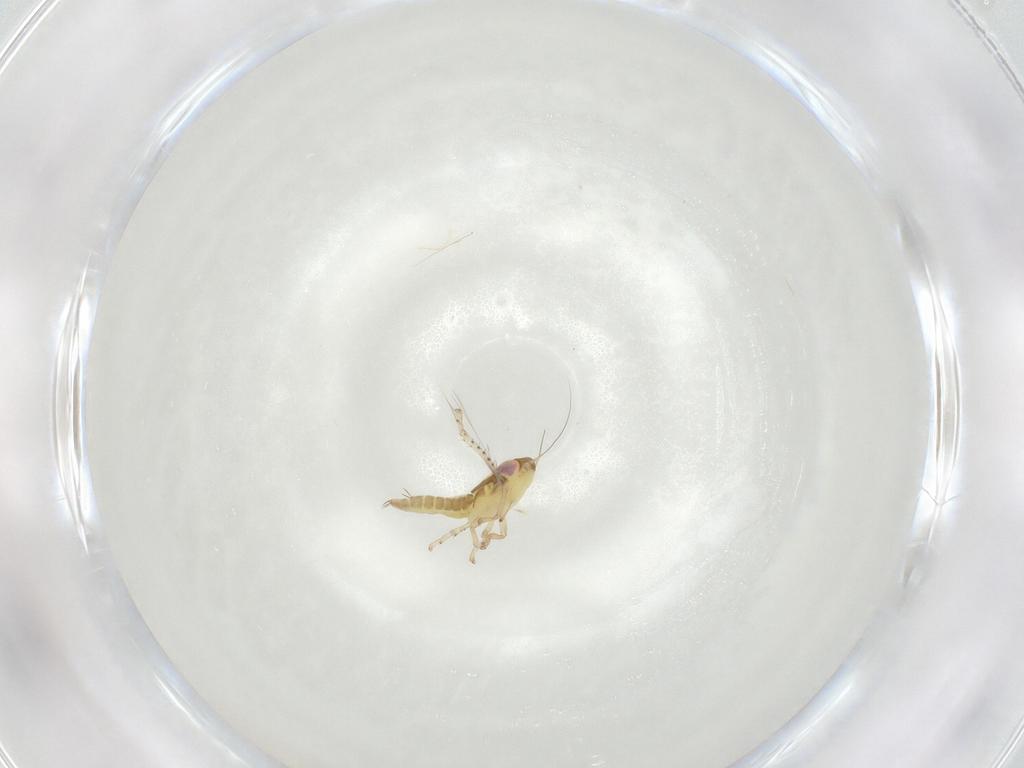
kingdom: Animalia
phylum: Arthropoda
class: Insecta
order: Hemiptera
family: Cicadellidae
